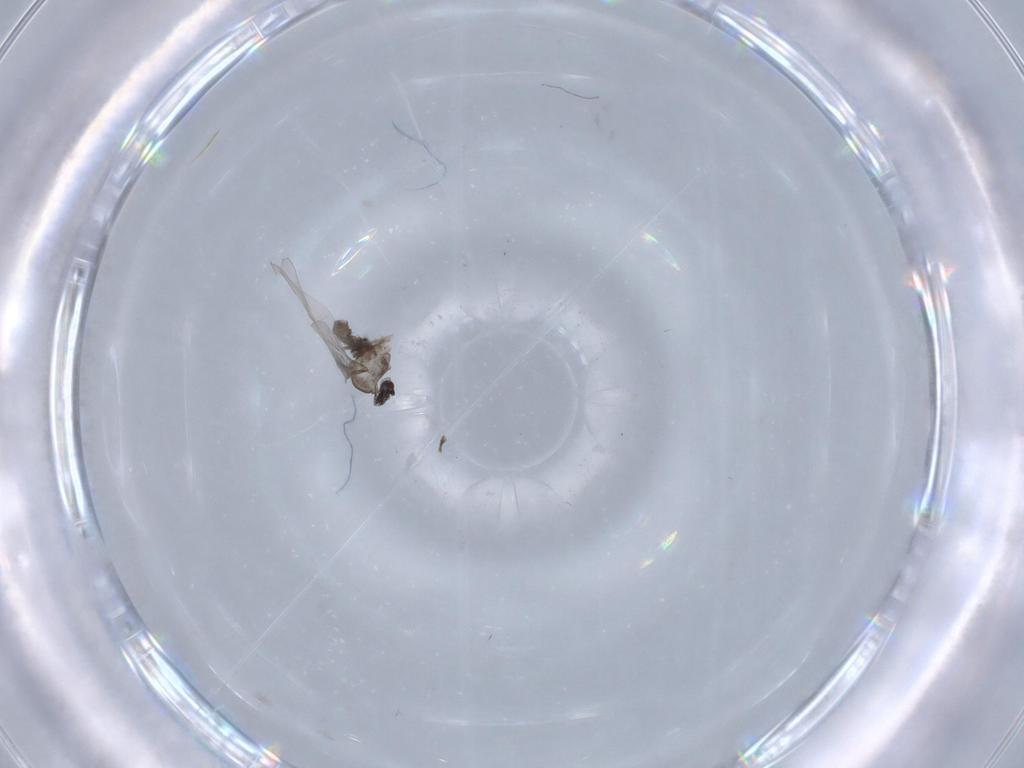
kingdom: Animalia
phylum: Arthropoda
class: Insecta
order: Diptera
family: Cecidomyiidae
